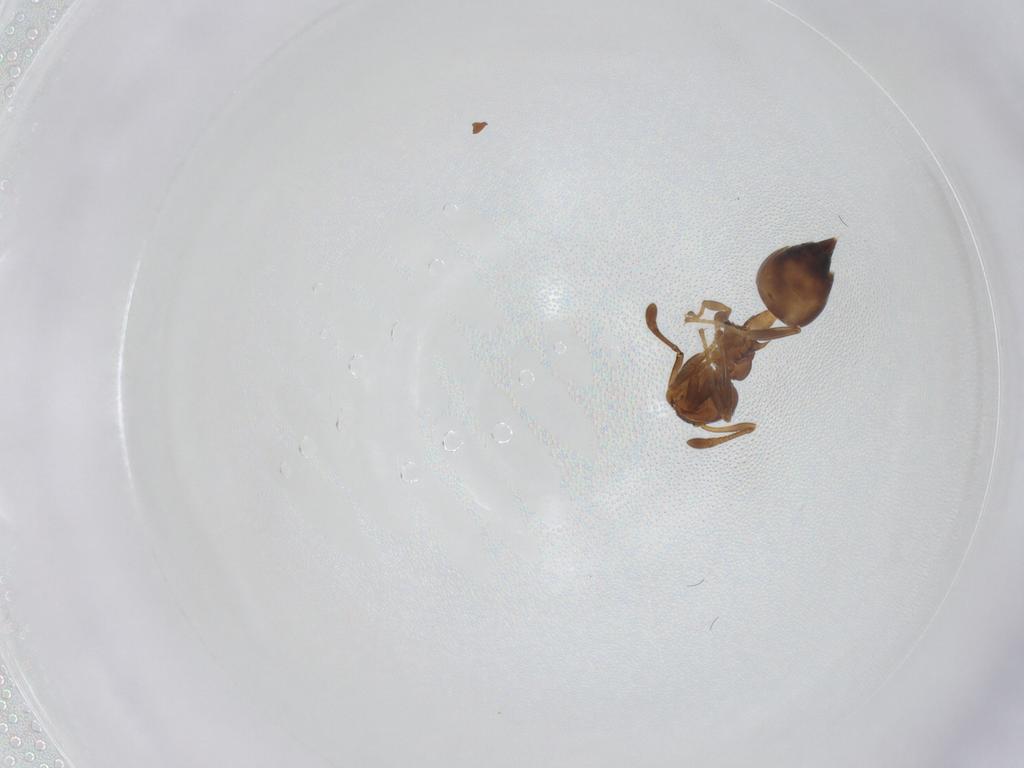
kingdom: Animalia
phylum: Arthropoda
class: Insecta
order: Hymenoptera
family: Formicidae
